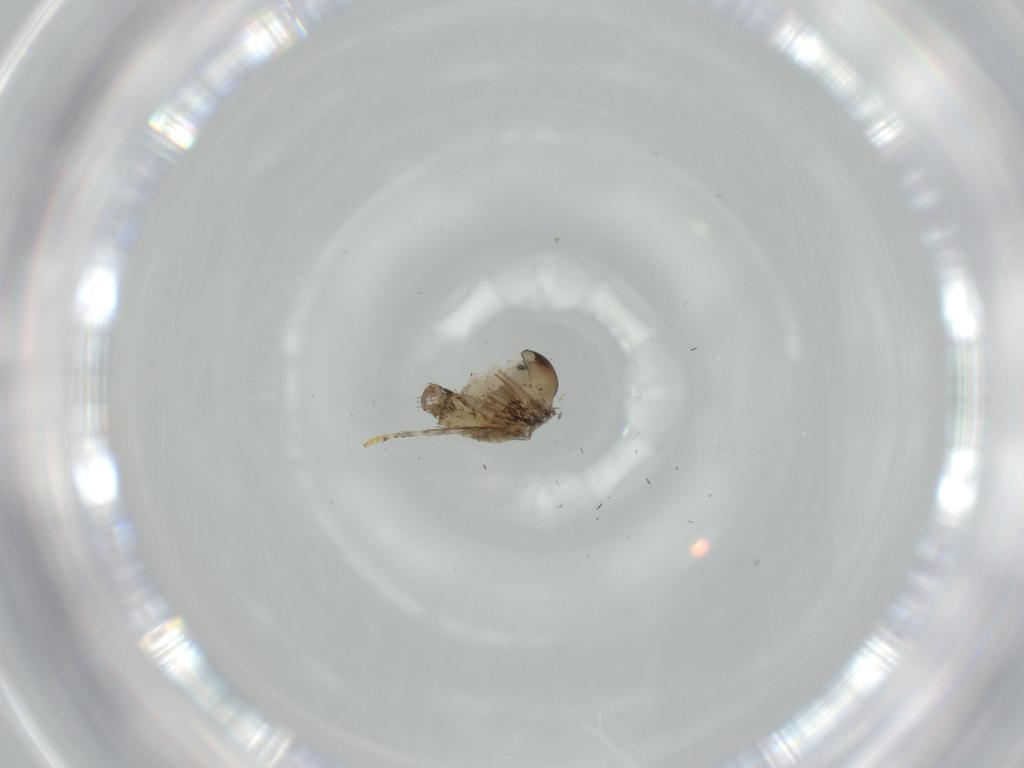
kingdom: Animalia
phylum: Arthropoda
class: Insecta
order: Diptera
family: Psychodidae
